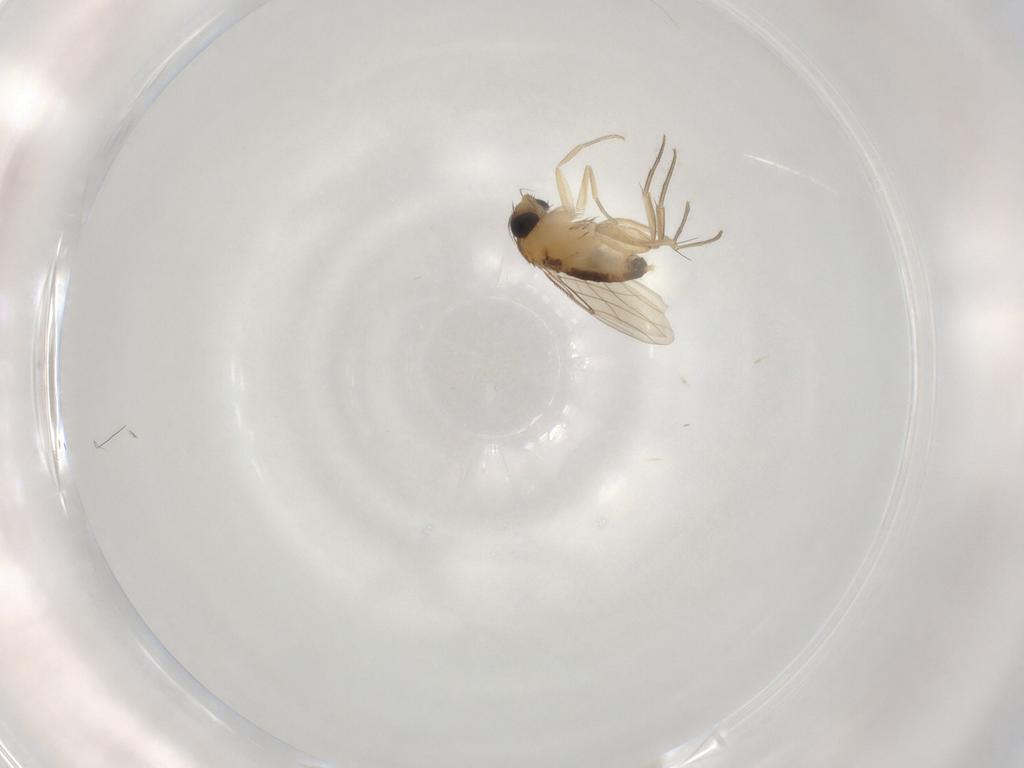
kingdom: Animalia
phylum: Arthropoda
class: Insecta
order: Diptera
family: Phoridae
